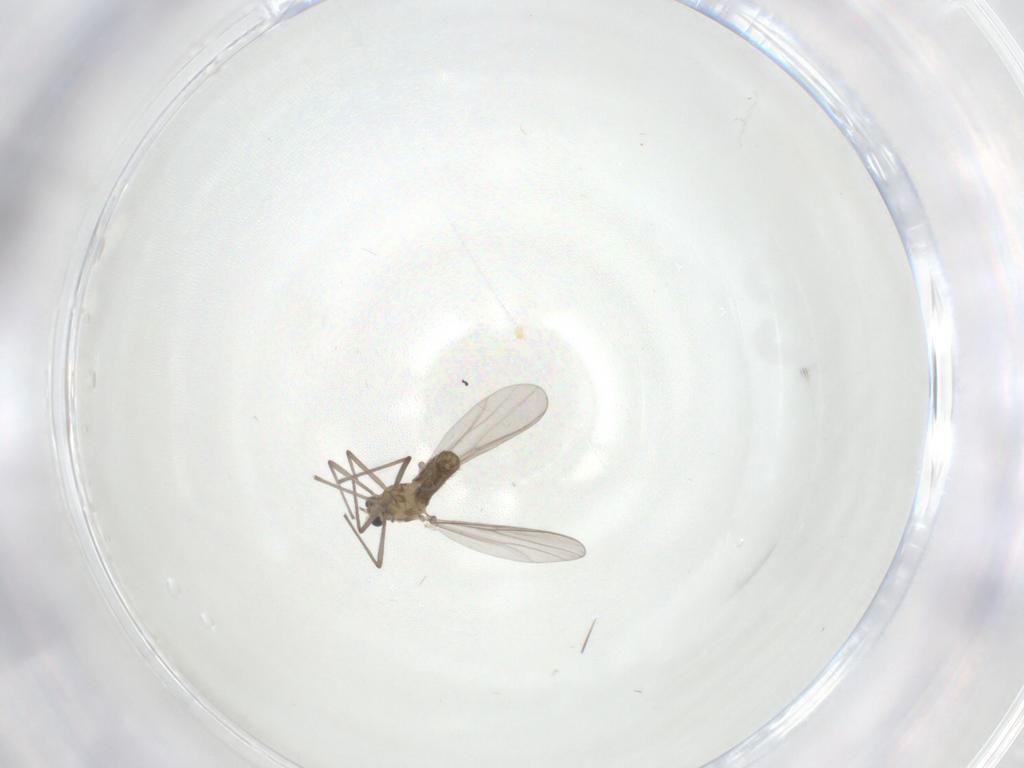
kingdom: Animalia
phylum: Arthropoda
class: Insecta
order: Diptera
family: Cecidomyiidae
